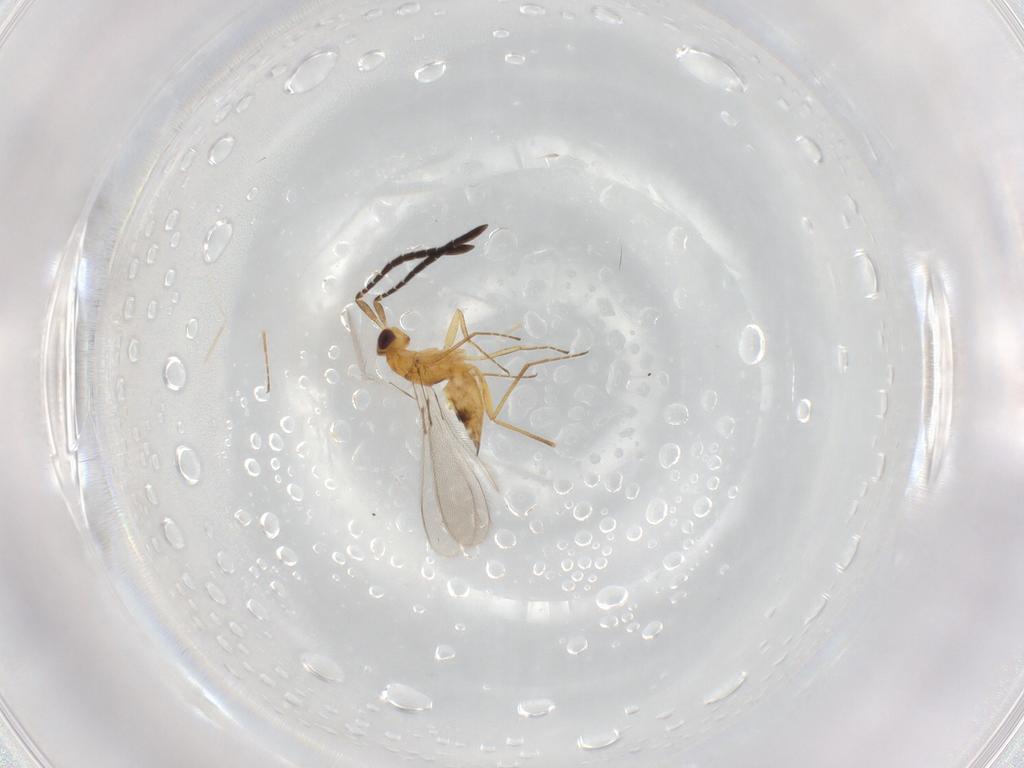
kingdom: Animalia
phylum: Arthropoda
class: Insecta
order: Hymenoptera
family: Mymaridae
